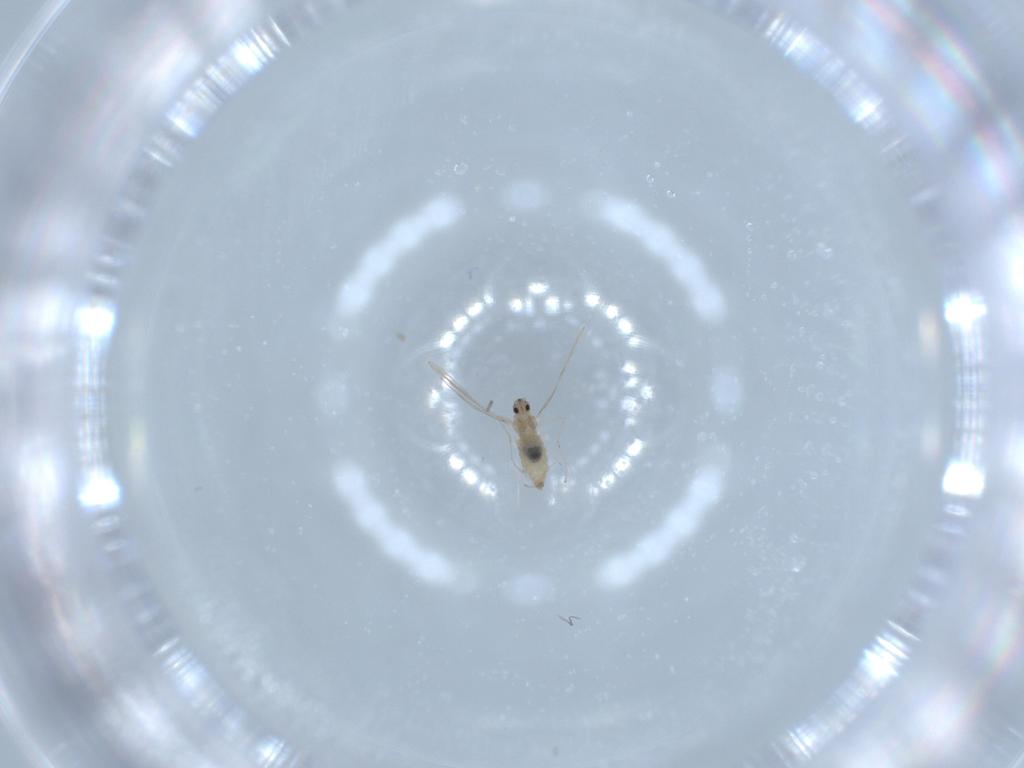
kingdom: Animalia
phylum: Arthropoda
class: Insecta
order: Diptera
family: Cecidomyiidae
